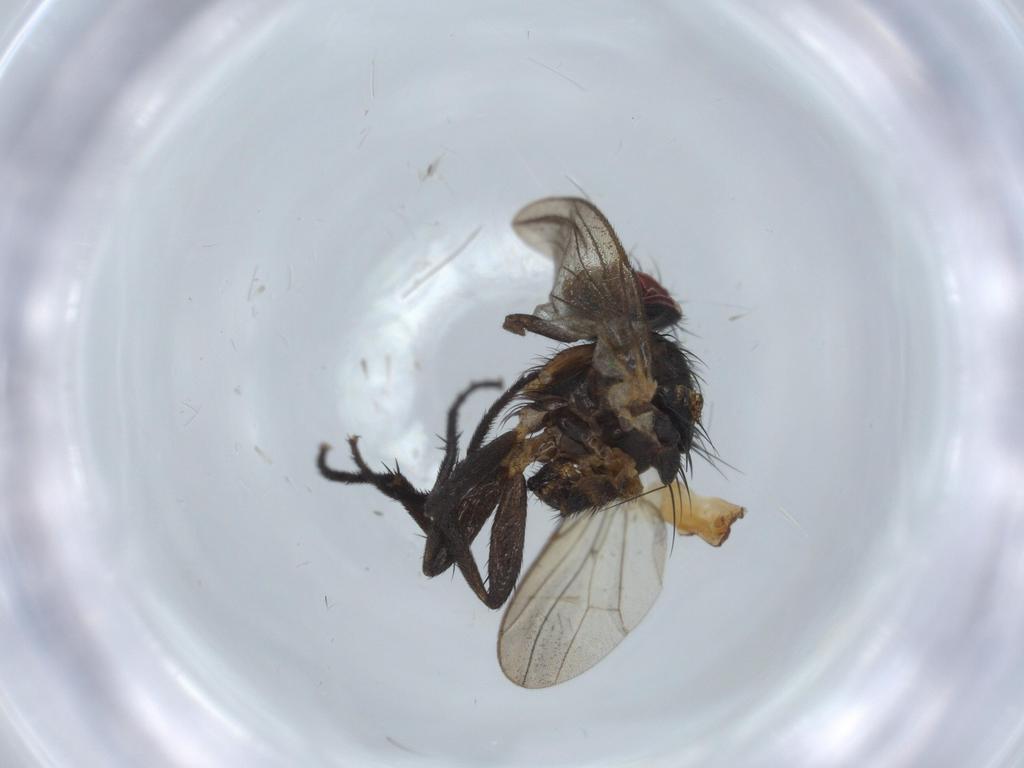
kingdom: Animalia
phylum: Arthropoda
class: Insecta
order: Diptera
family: Anthomyiidae
